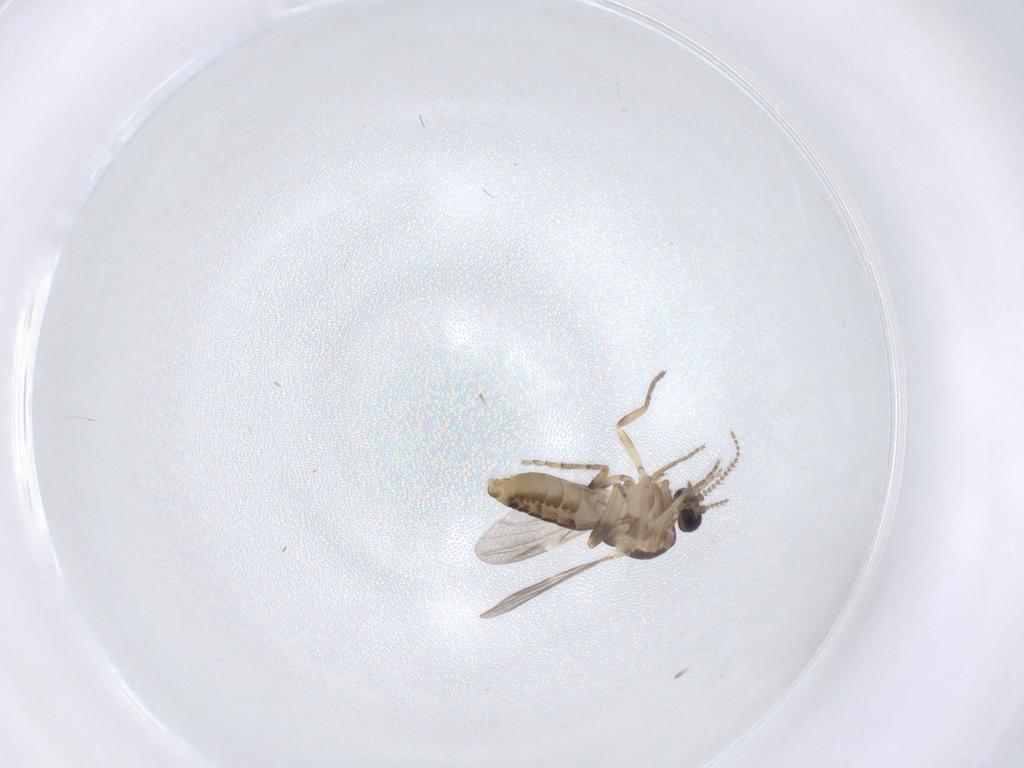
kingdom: Animalia
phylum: Arthropoda
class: Insecta
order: Diptera
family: Ceratopogonidae
